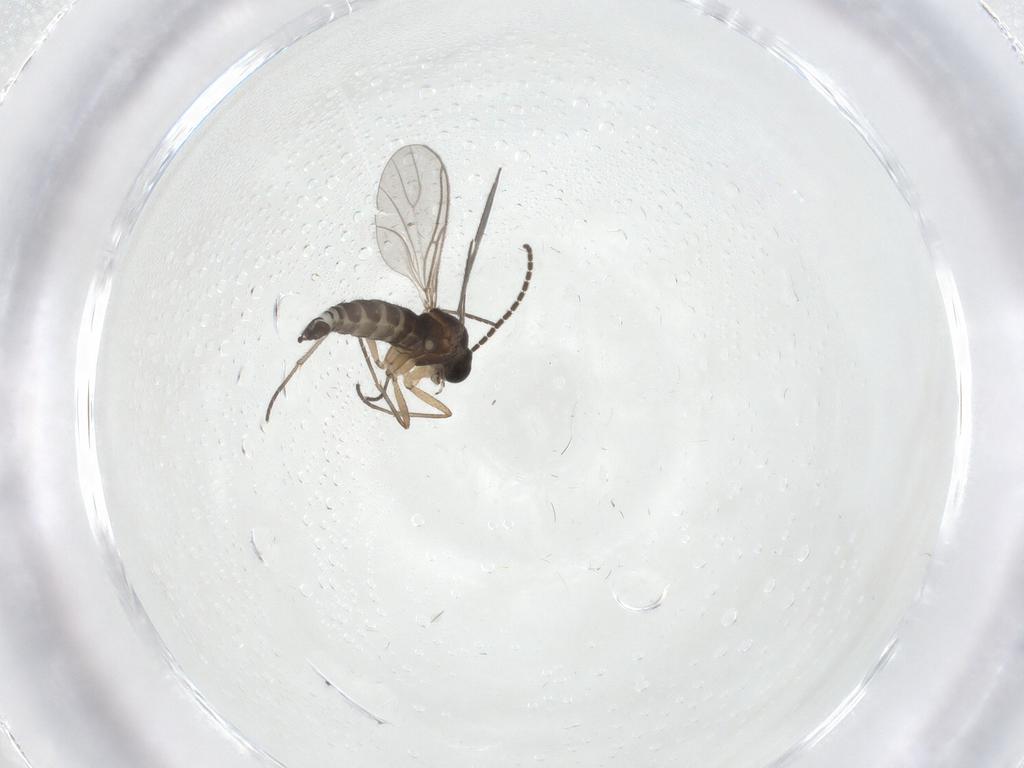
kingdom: Animalia
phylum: Arthropoda
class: Insecta
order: Diptera
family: Sciaridae
